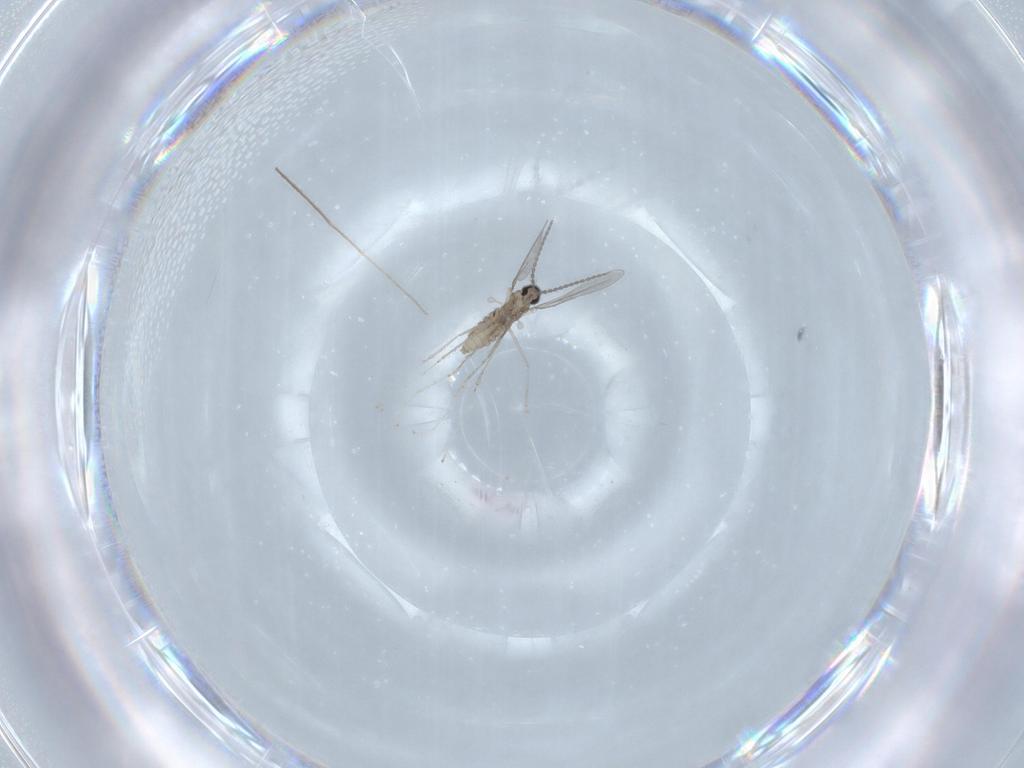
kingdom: Animalia
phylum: Arthropoda
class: Insecta
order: Diptera
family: Chironomidae
